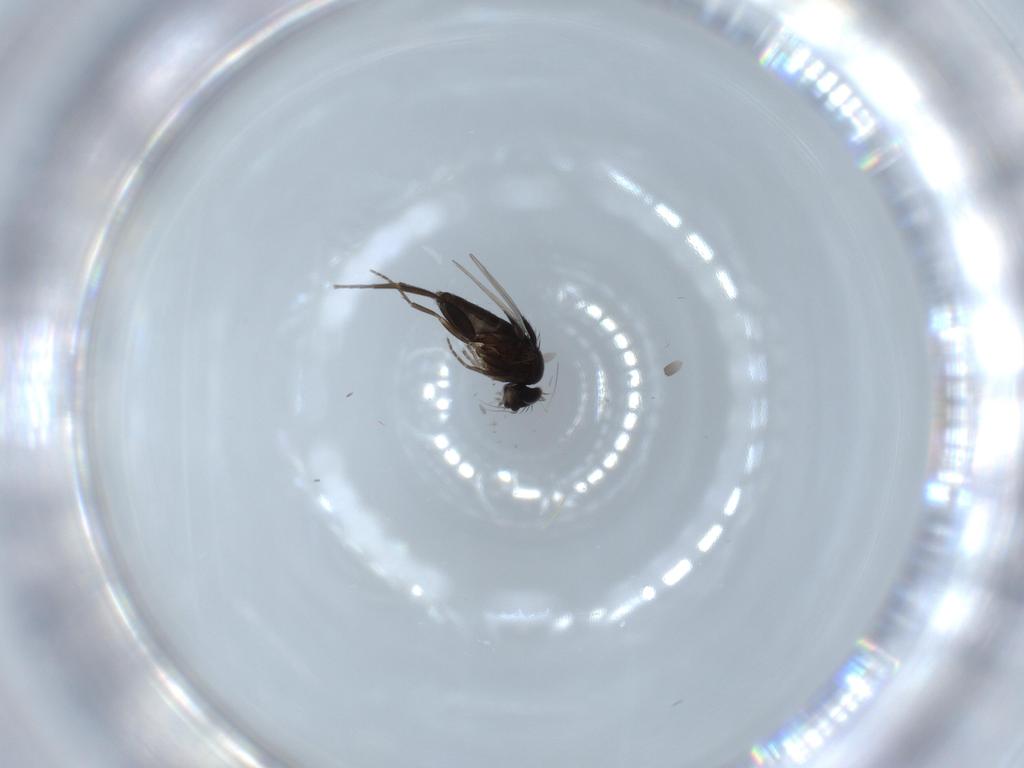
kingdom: Animalia
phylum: Arthropoda
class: Insecta
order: Diptera
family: Phoridae
